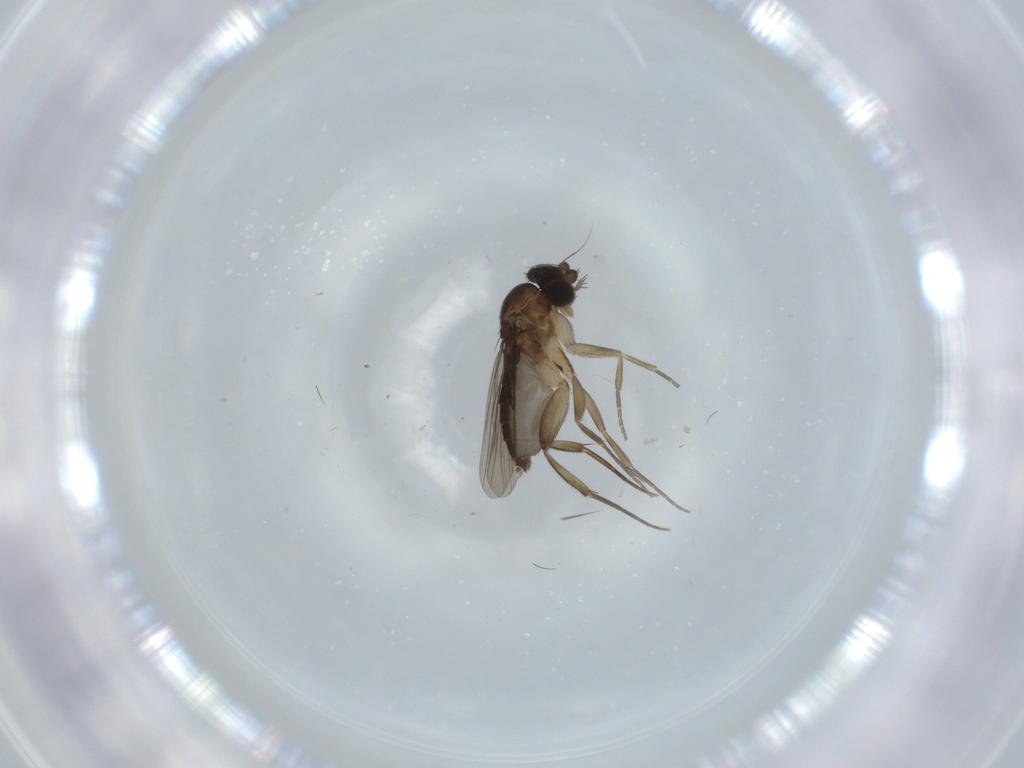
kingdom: Animalia
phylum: Arthropoda
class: Insecta
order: Diptera
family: Phoridae
